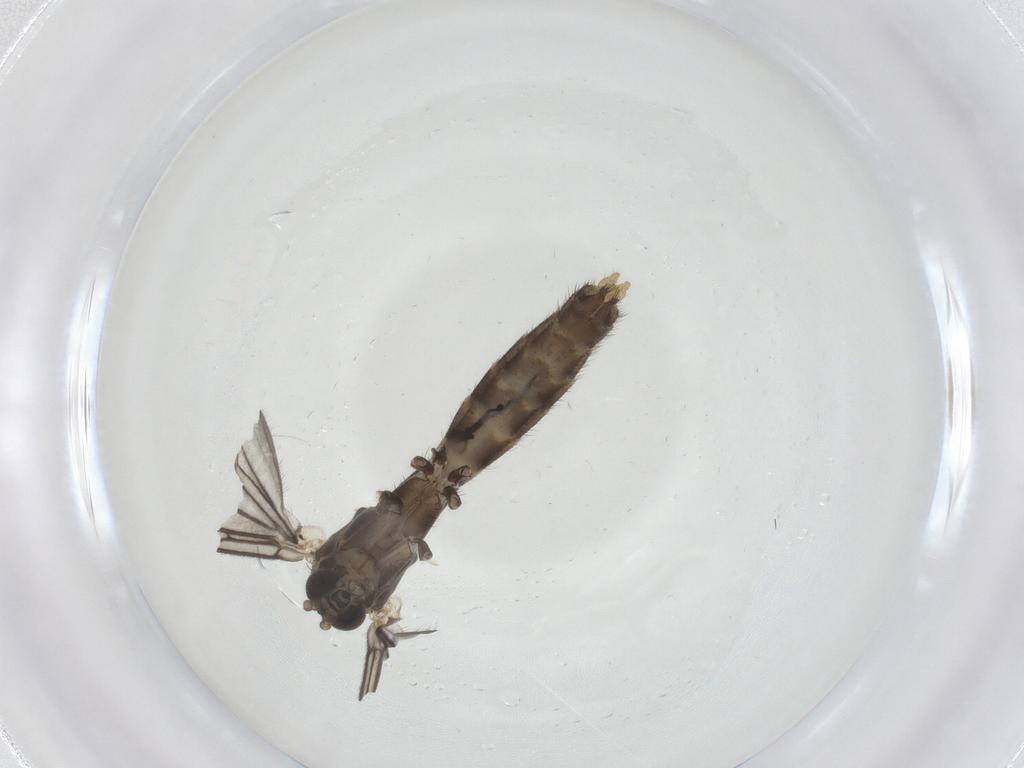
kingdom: Animalia
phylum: Arthropoda
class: Insecta
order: Diptera
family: Mycetophilidae
